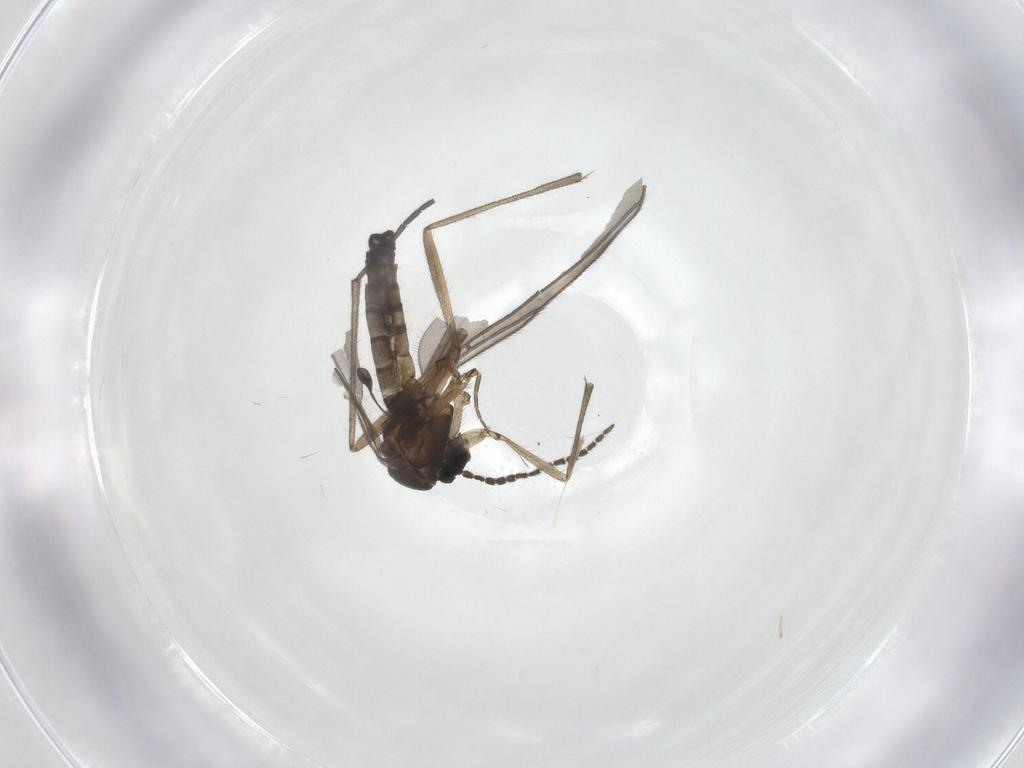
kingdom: Animalia
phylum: Arthropoda
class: Insecta
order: Diptera
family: Sciaridae
